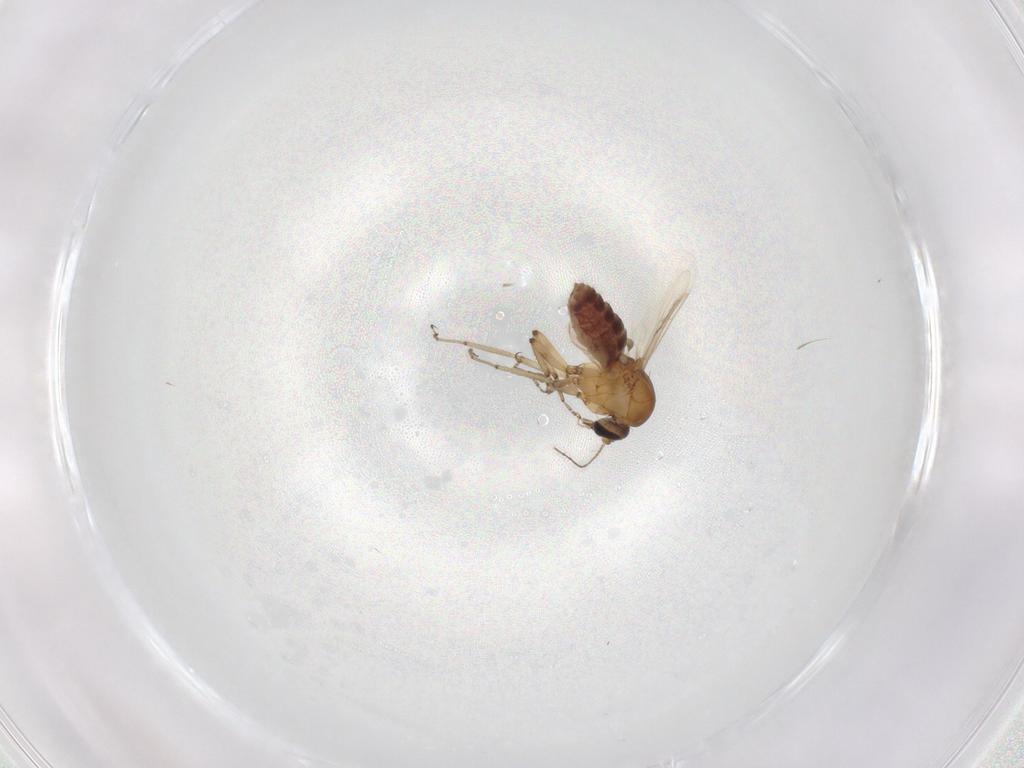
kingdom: Animalia
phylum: Arthropoda
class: Insecta
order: Diptera
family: Ceratopogonidae
